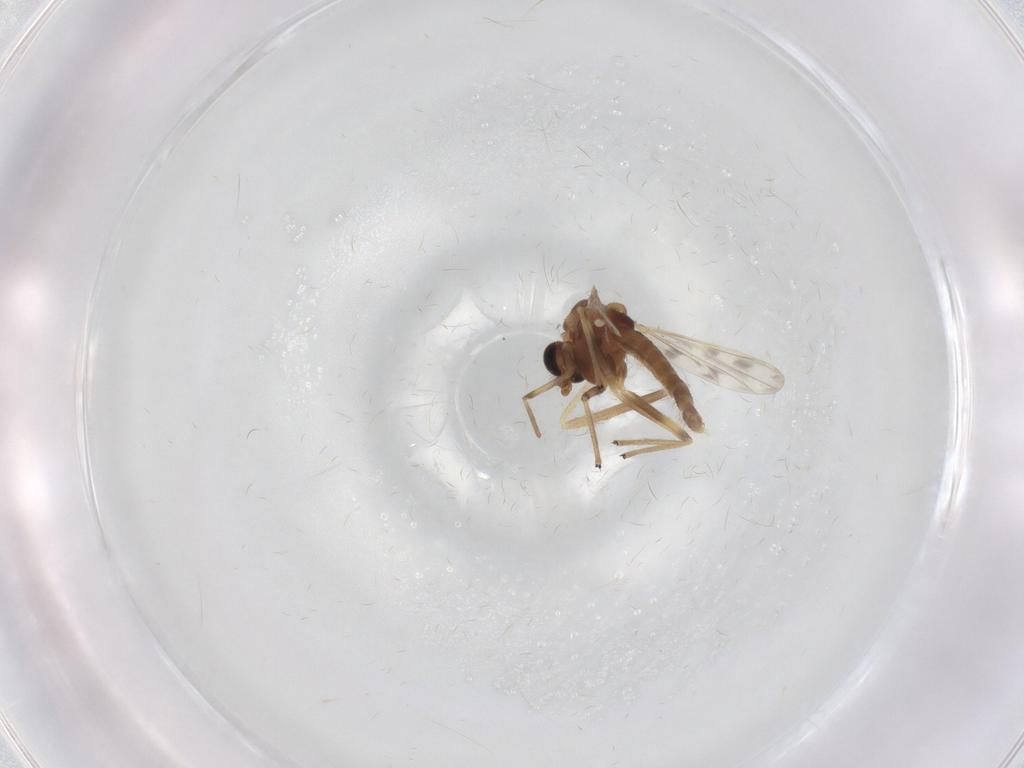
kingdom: Animalia
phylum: Arthropoda
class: Insecta
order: Diptera
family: Chironomidae
